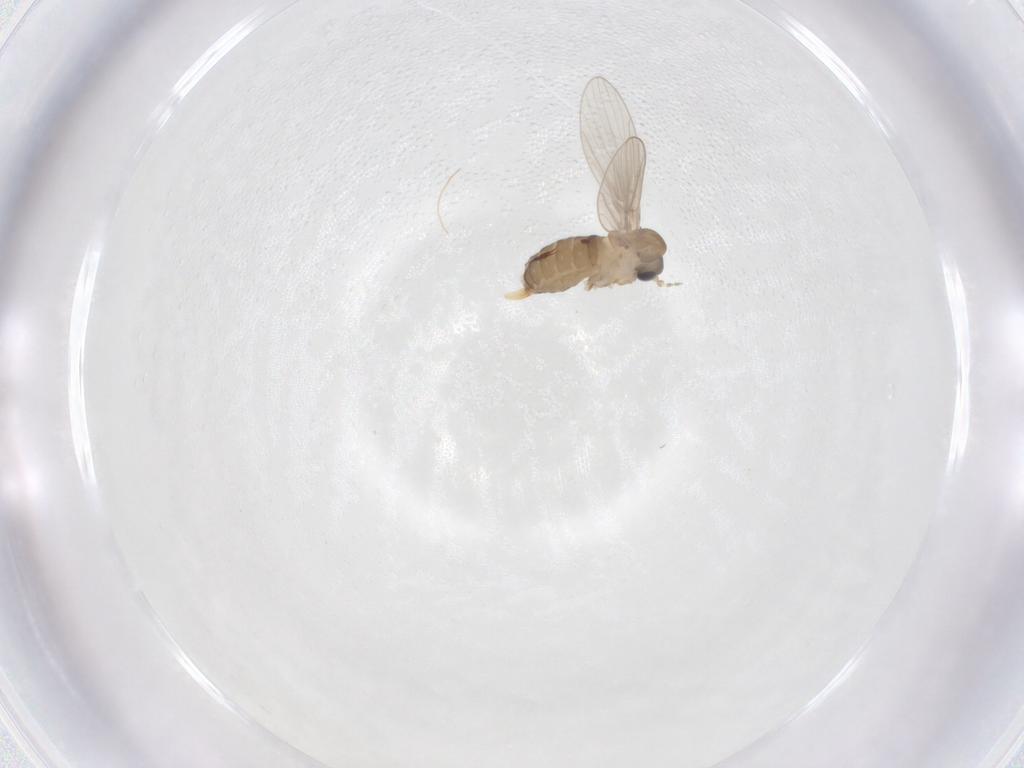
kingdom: Animalia
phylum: Arthropoda
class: Insecta
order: Diptera
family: Psychodidae
